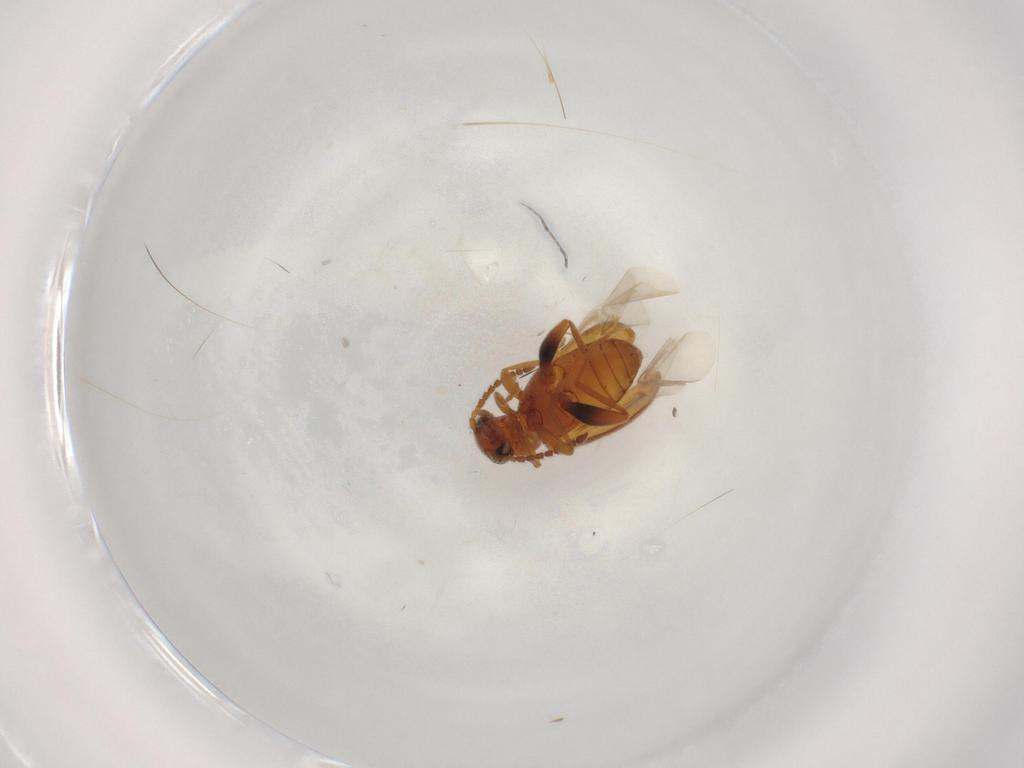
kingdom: Animalia
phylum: Arthropoda
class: Insecta
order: Coleoptera
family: Aderidae
